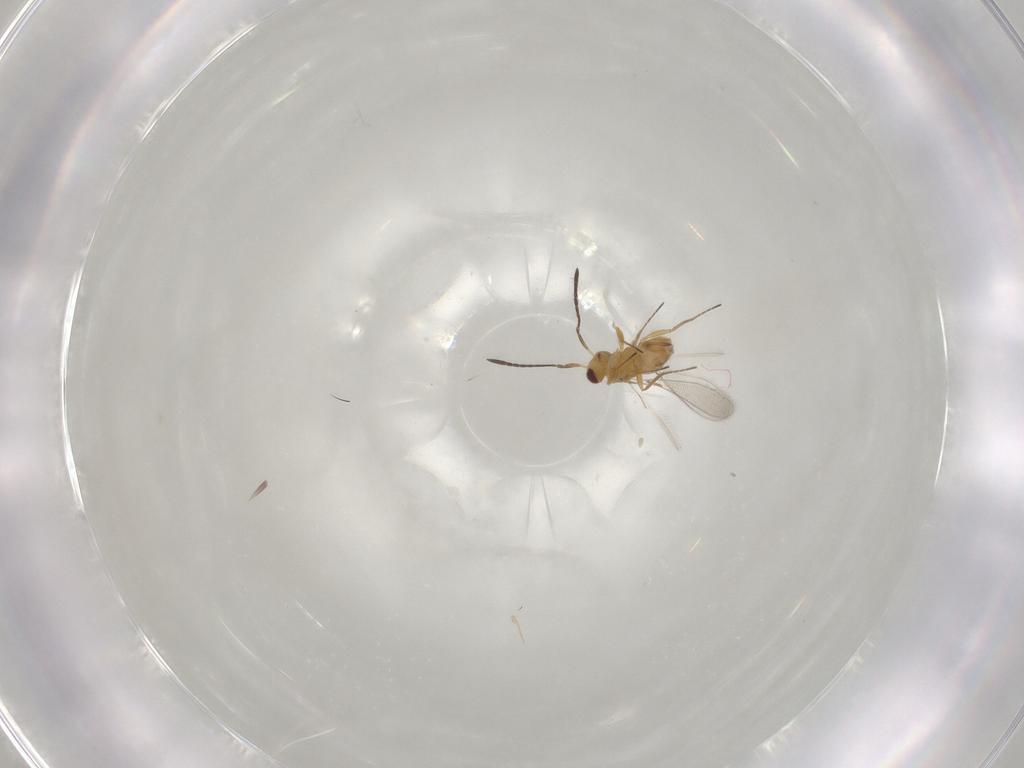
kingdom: Animalia
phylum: Arthropoda
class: Insecta
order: Hymenoptera
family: Mymaridae
